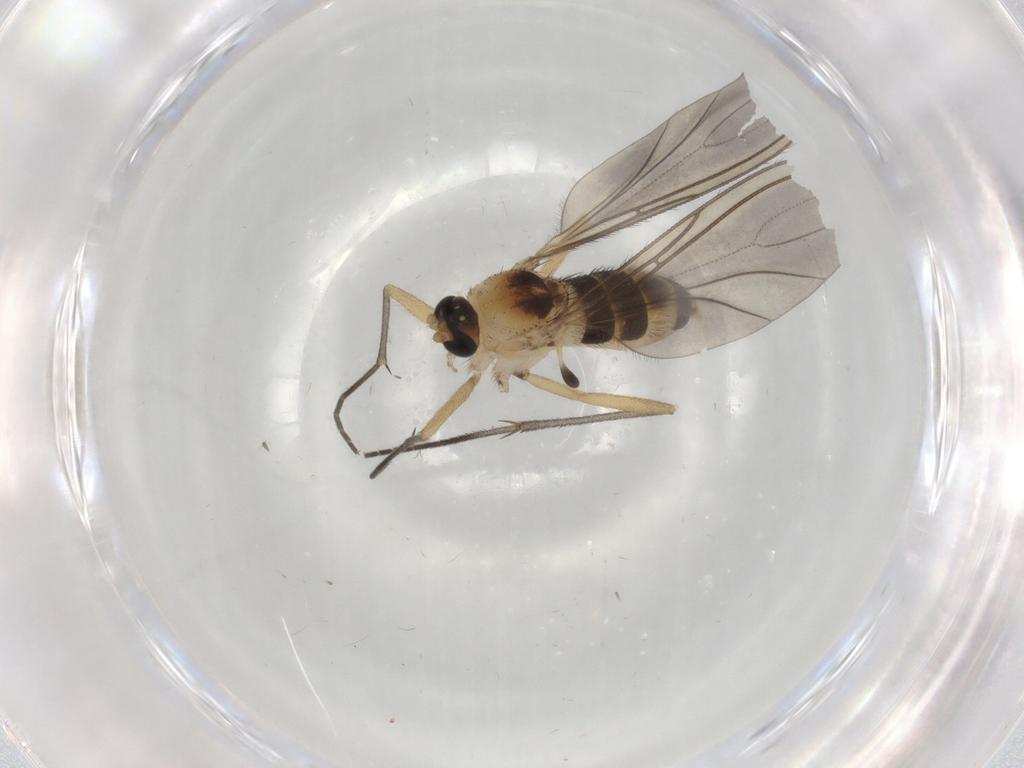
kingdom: Animalia
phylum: Arthropoda
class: Insecta
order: Diptera
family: Sciaridae
